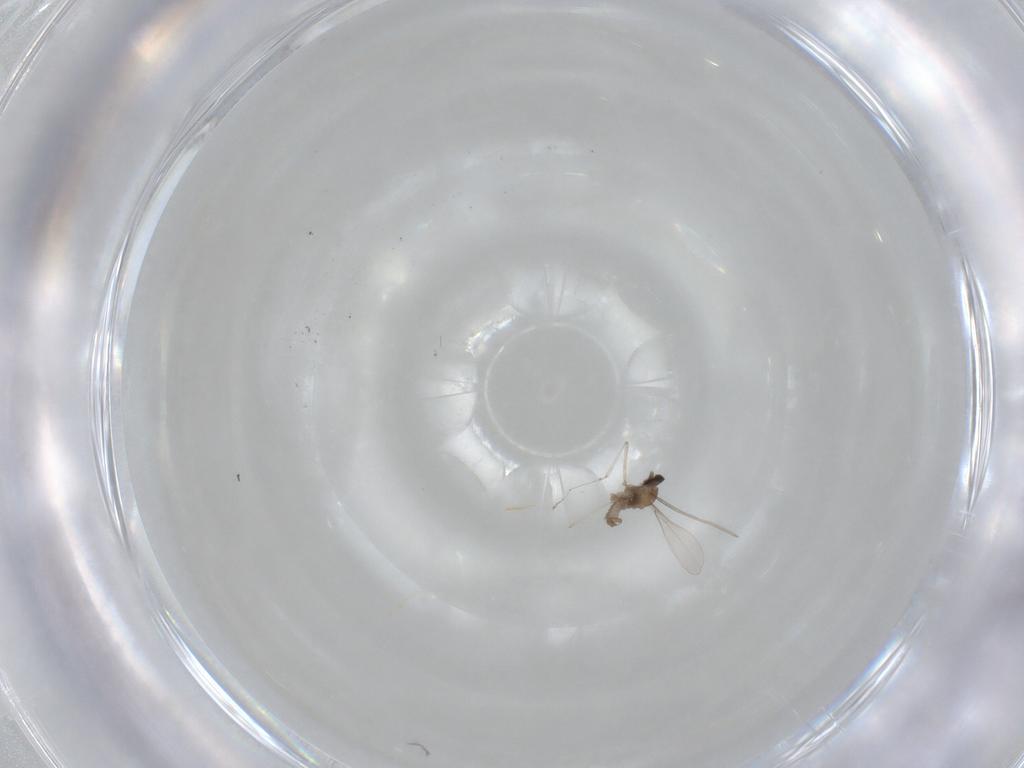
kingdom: Animalia
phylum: Arthropoda
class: Insecta
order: Diptera
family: Cecidomyiidae
